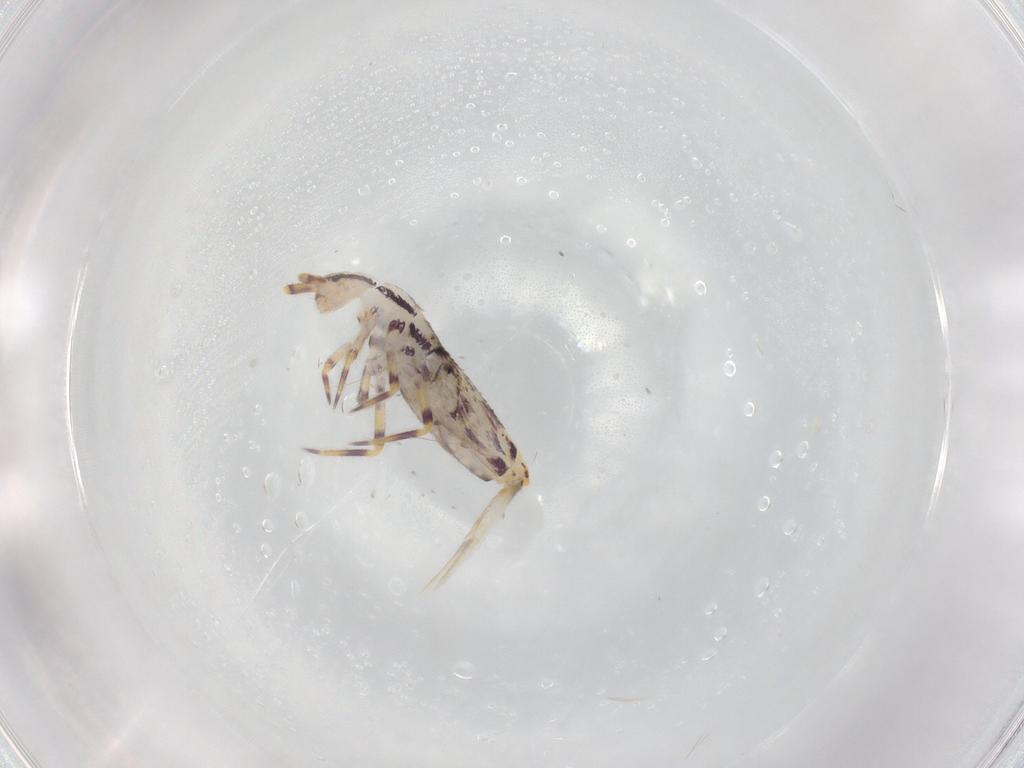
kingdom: Animalia
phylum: Arthropoda
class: Collembola
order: Entomobryomorpha
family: Entomobryidae
